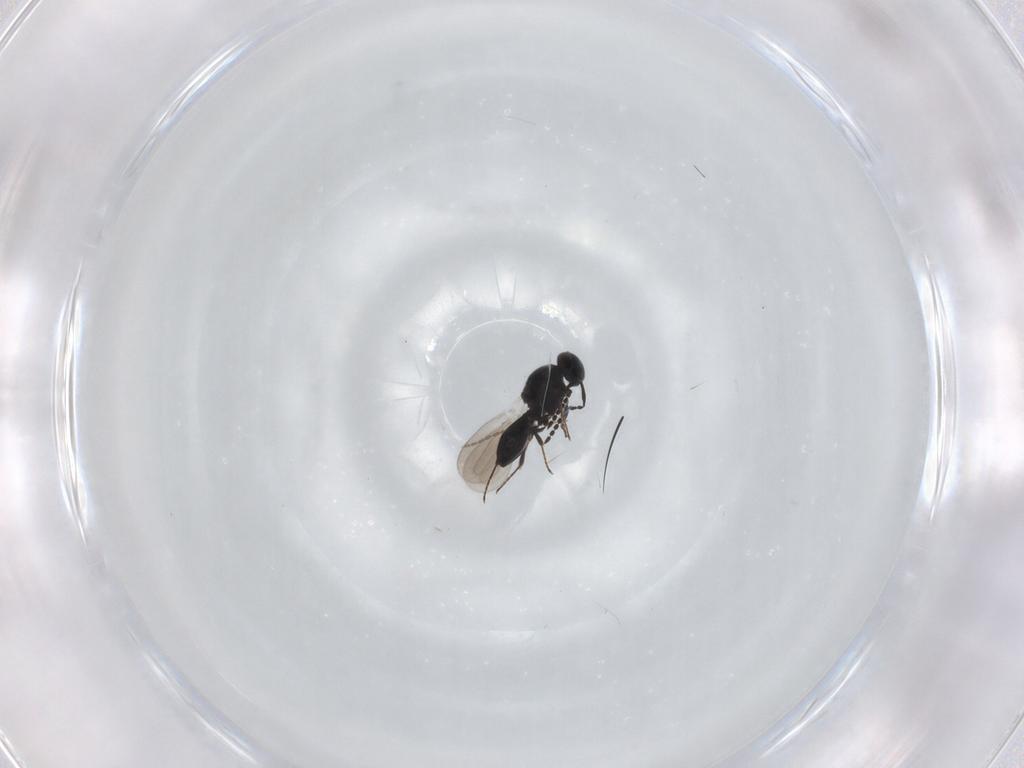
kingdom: Animalia
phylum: Arthropoda
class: Insecta
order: Hymenoptera
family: Platygastridae
